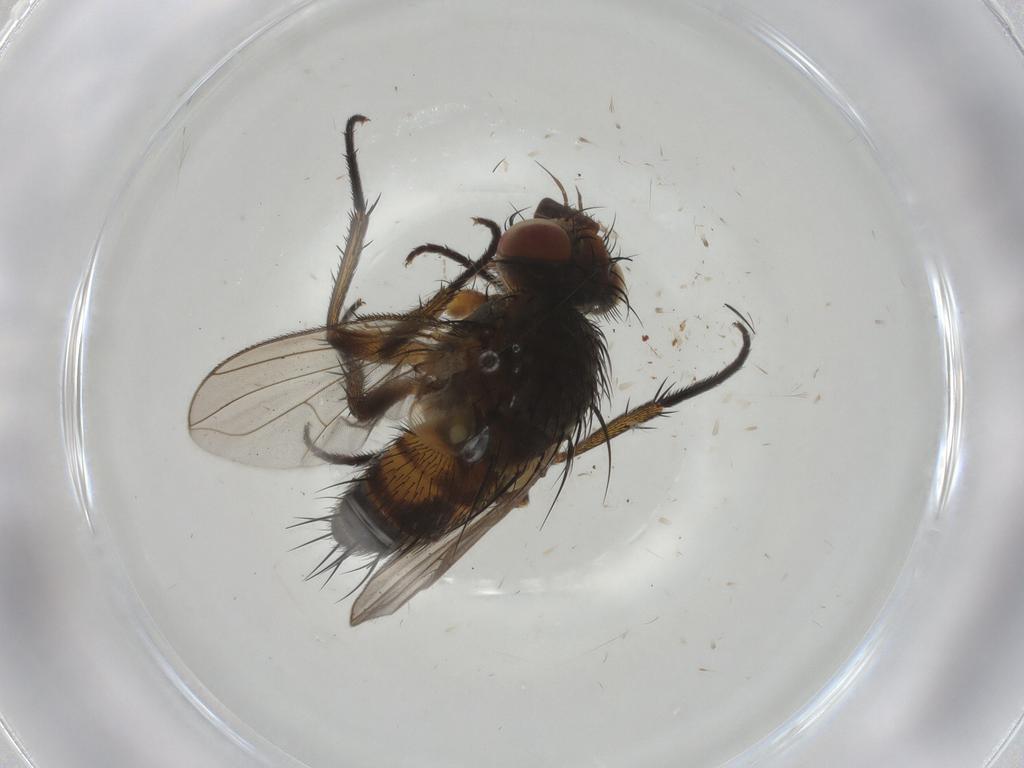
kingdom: Animalia
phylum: Arthropoda
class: Insecta
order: Diptera
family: Tachinidae
